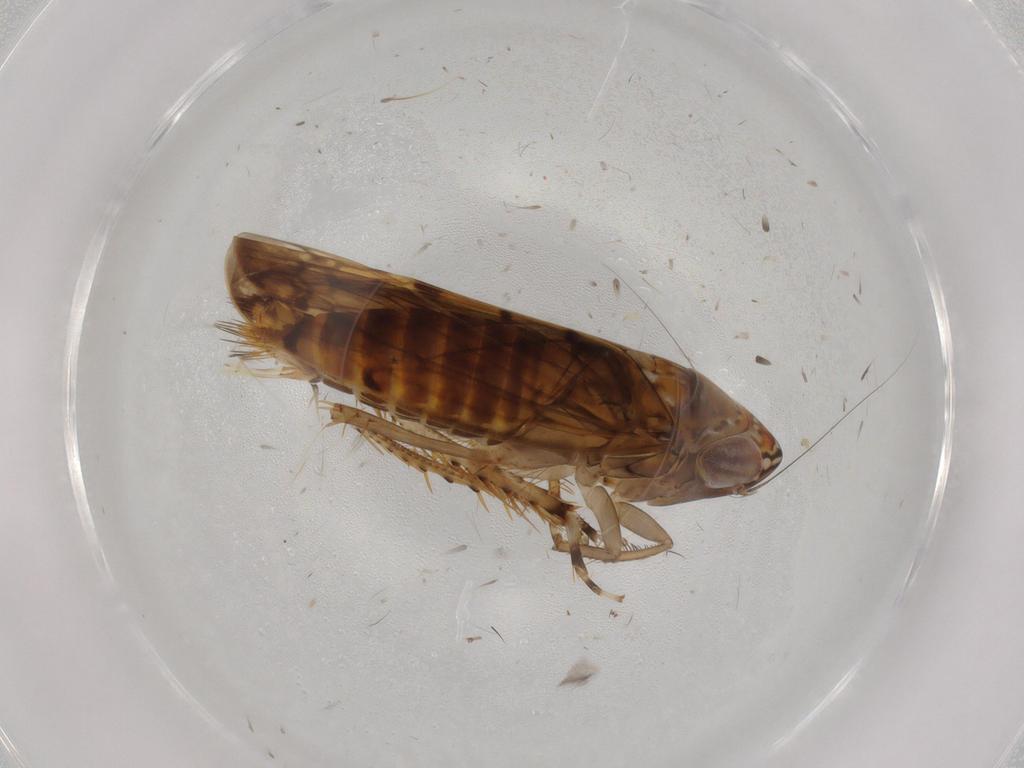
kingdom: Animalia
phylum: Arthropoda
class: Insecta
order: Hemiptera
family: Cicadellidae
